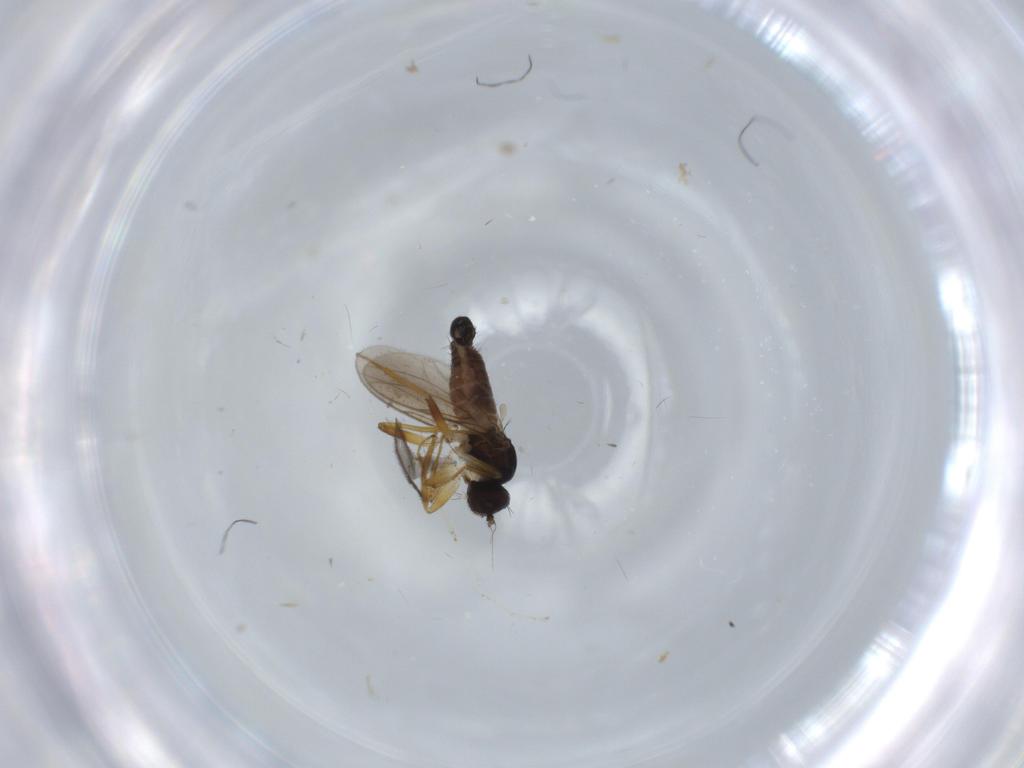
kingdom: Animalia
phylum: Arthropoda
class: Insecta
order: Diptera
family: Hybotidae
